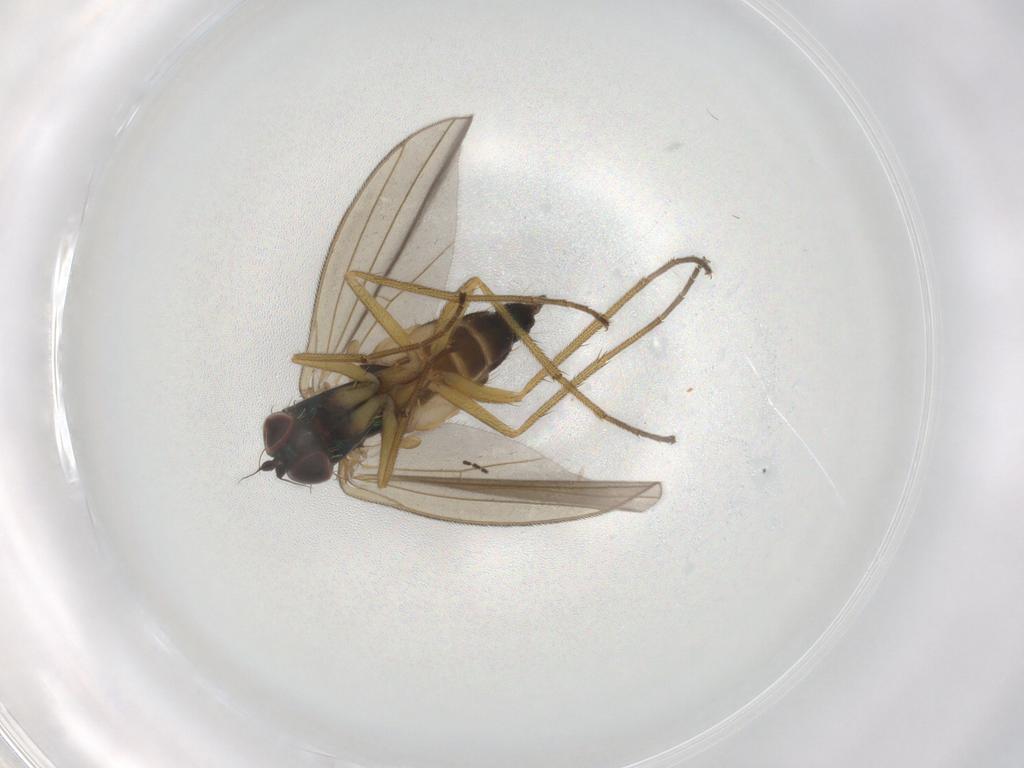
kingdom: Animalia
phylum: Arthropoda
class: Insecta
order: Diptera
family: Dolichopodidae
